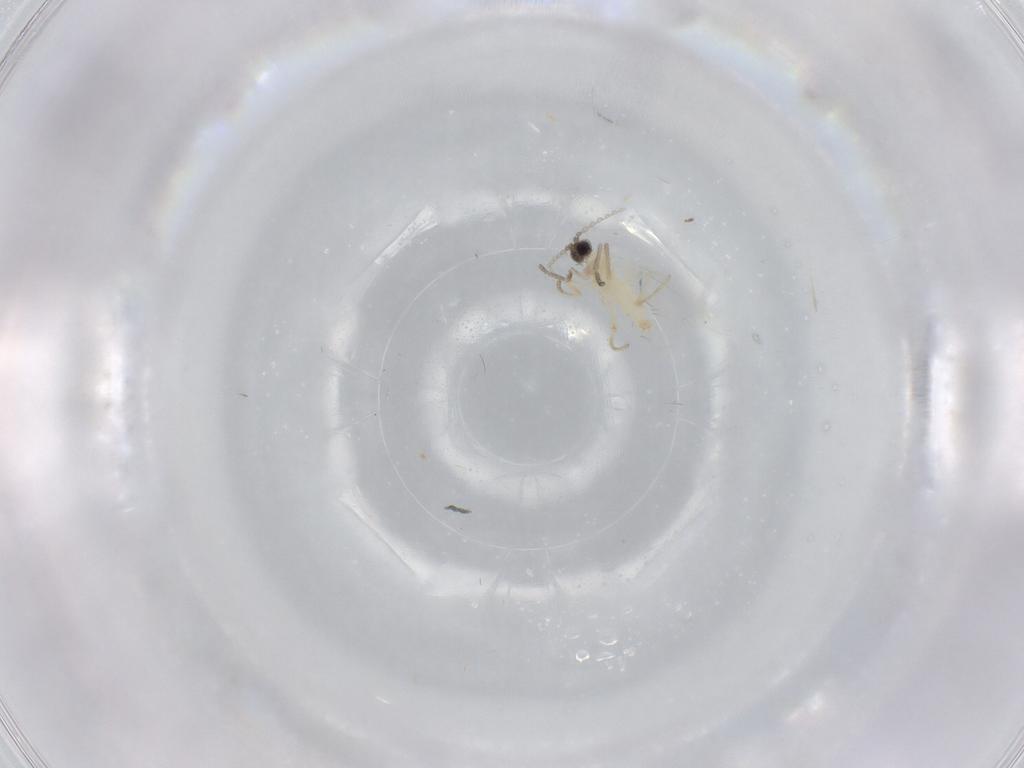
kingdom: Animalia
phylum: Arthropoda
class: Insecta
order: Diptera
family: Cecidomyiidae
